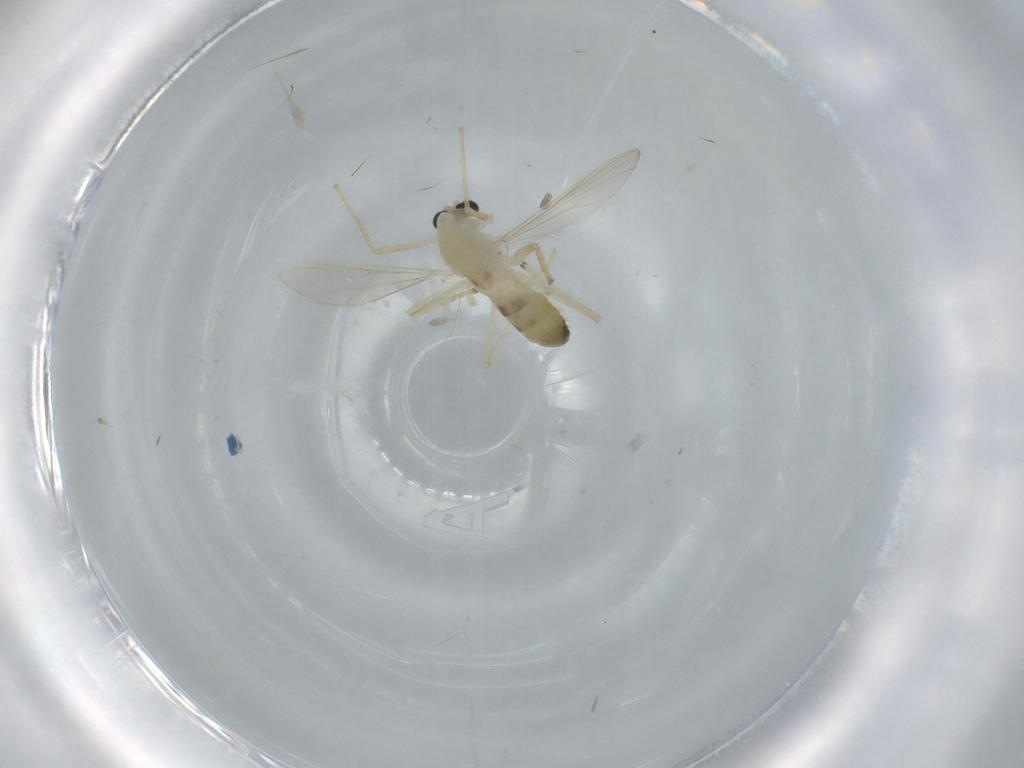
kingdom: Animalia
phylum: Arthropoda
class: Insecta
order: Diptera
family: Chironomidae
